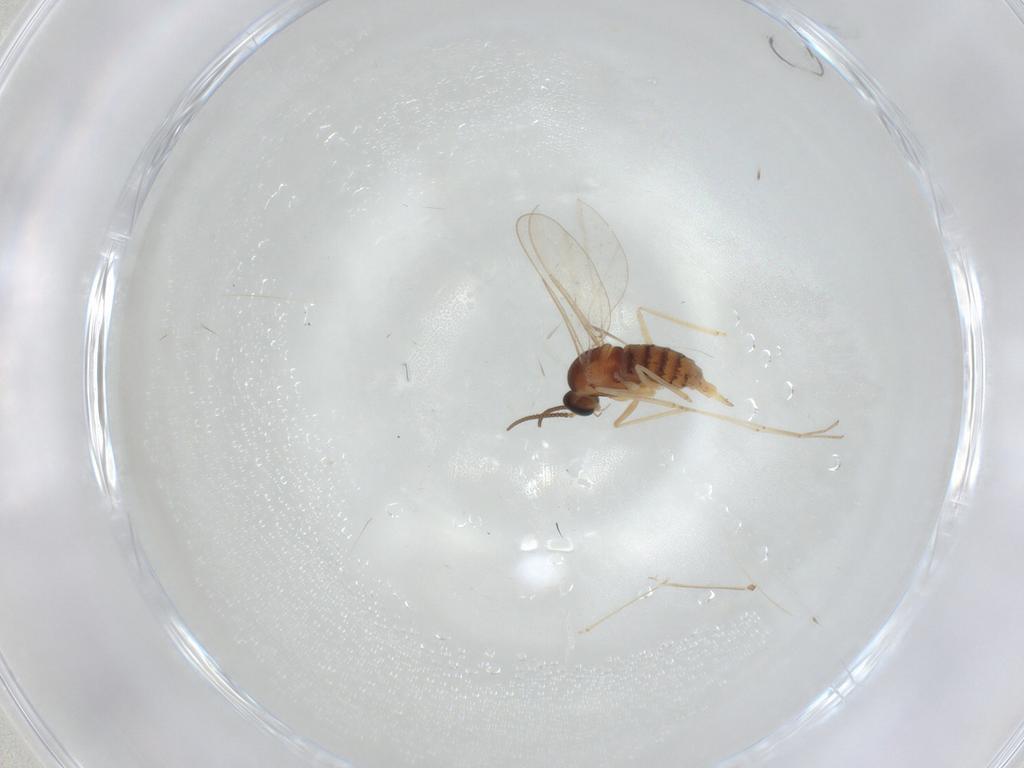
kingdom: Animalia
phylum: Arthropoda
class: Insecta
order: Diptera
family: Cecidomyiidae
